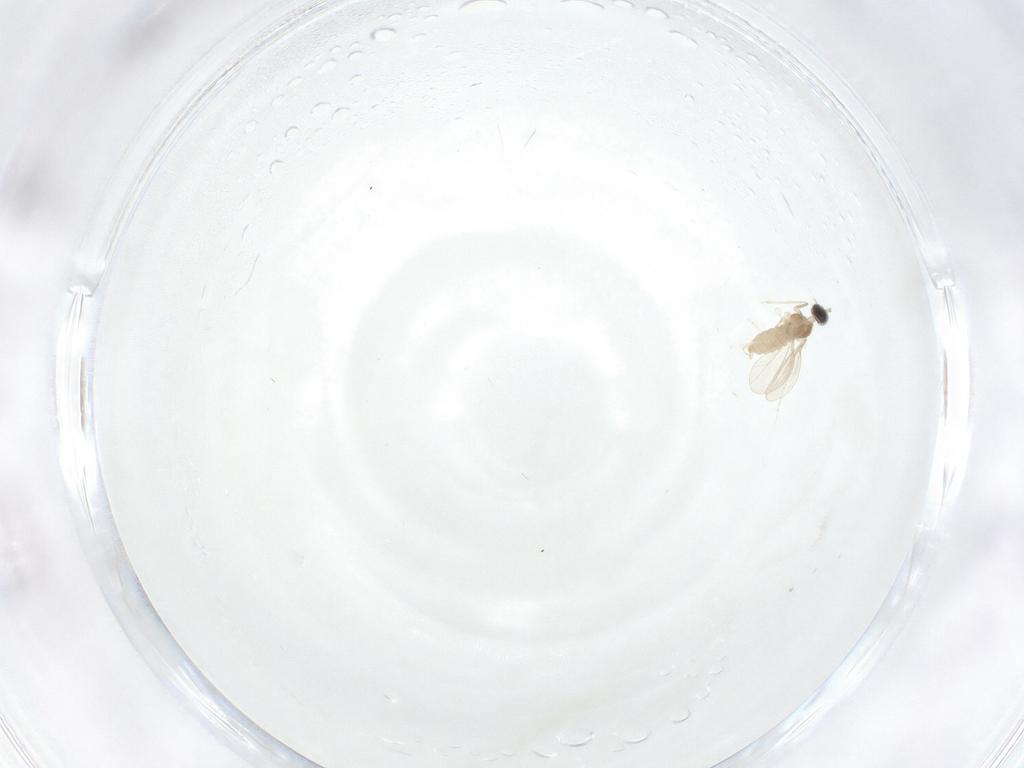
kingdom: Animalia
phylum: Arthropoda
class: Insecta
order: Diptera
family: Cecidomyiidae
